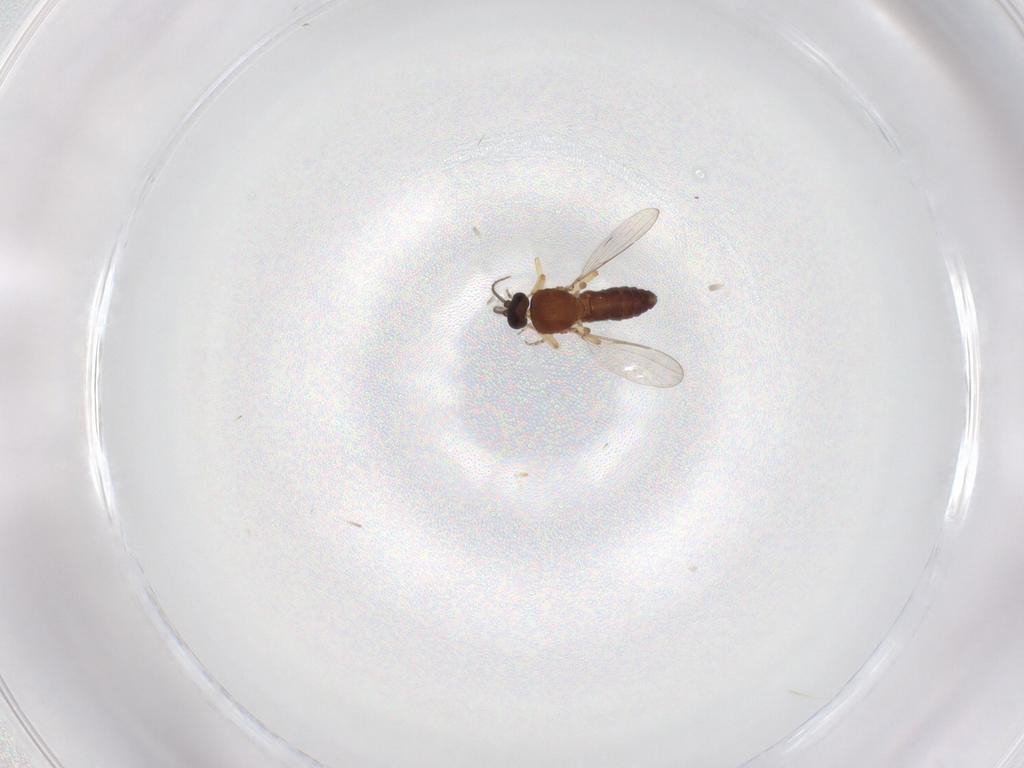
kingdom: Animalia
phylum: Arthropoda
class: Insecta
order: Diptera
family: Ceratopogonidae
